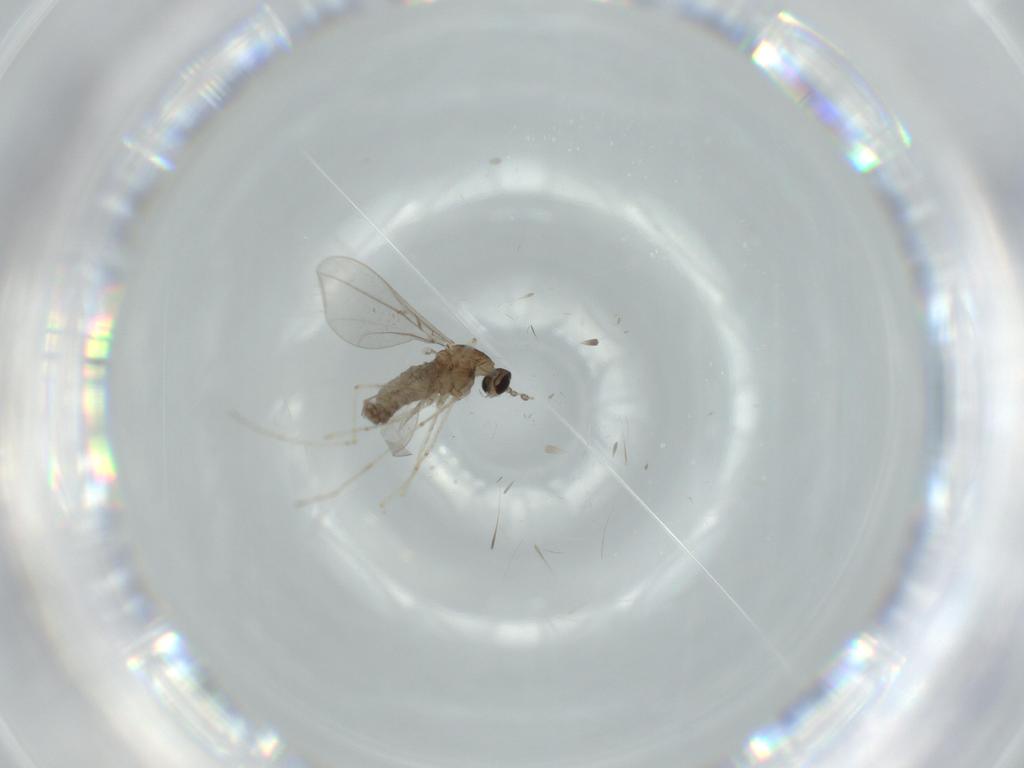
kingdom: Animalia
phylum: Arthropoda
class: Insecta
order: Diptera
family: Cecidomyiidae
